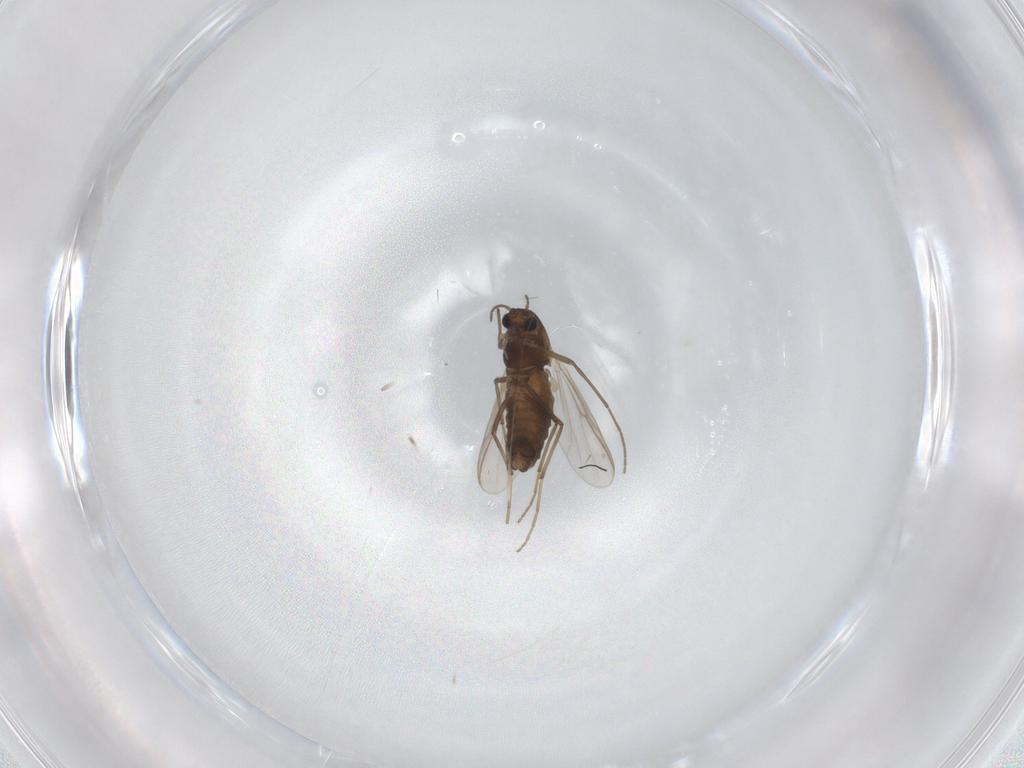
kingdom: Animalia
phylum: Arthropoda
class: Insecta
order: Diptera
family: Chironomidae
